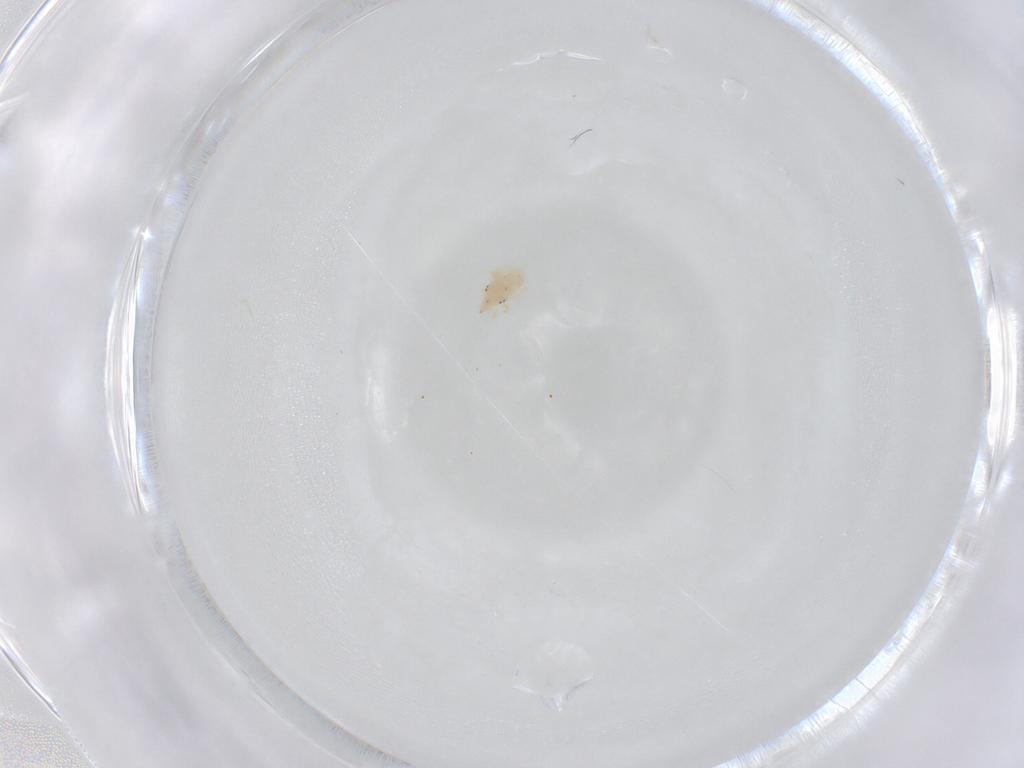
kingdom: Animalia
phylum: Arthropoda
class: Arachnida
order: Trombidiformes
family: Bdellidae
